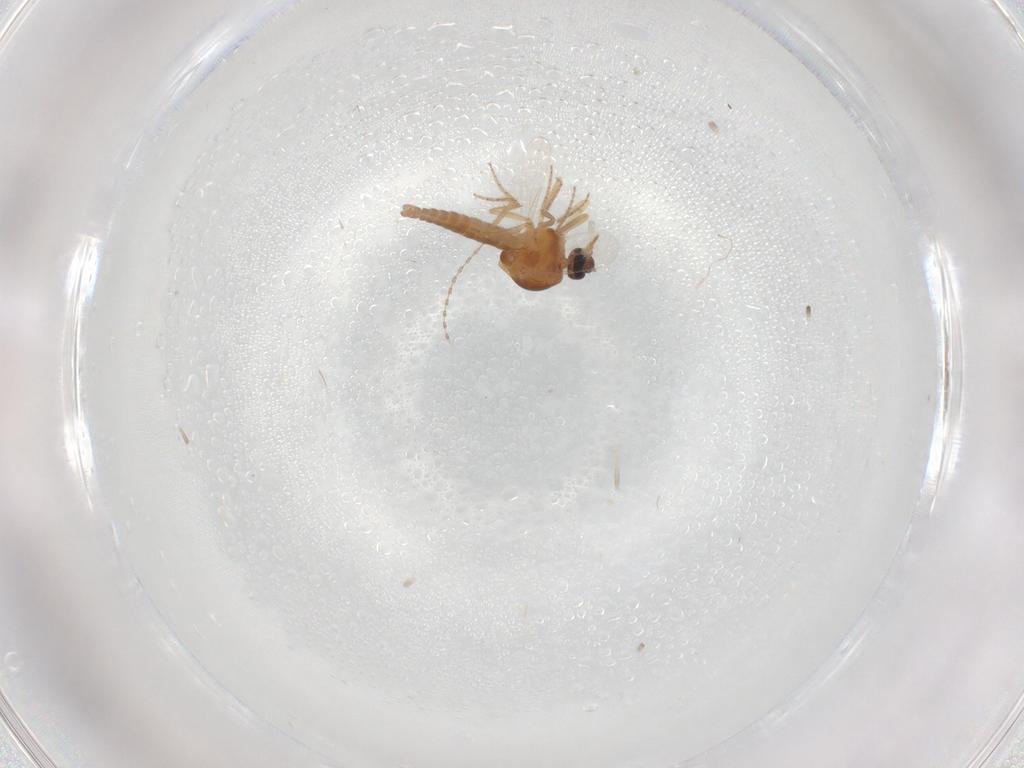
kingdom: Animalia
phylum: Arthropoda
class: Insecta
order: Diptera
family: Ceratopogonidae
